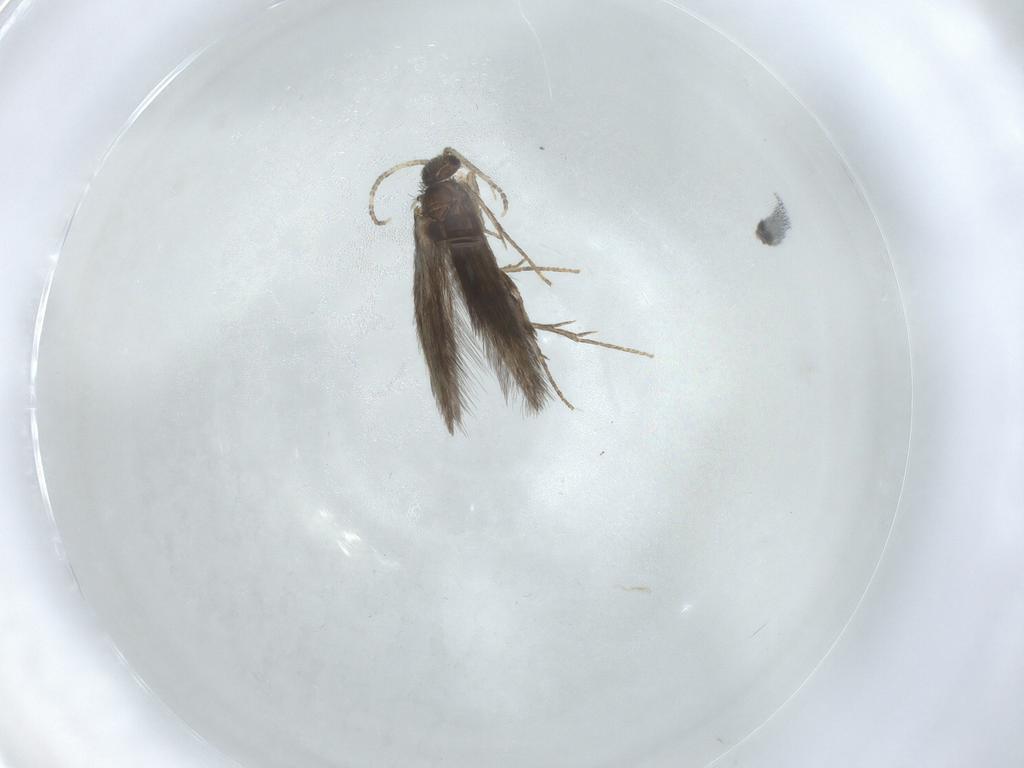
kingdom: Animalia
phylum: Arthropoda
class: Insecta
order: Trichoptera
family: Hydroptilidae
